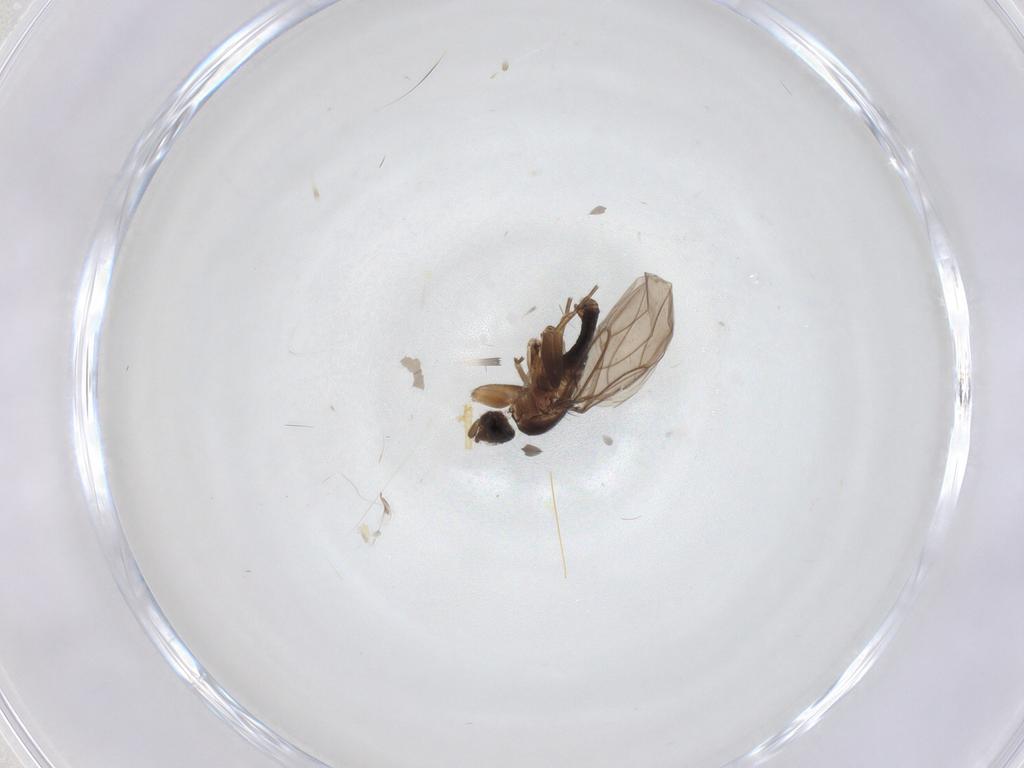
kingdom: Animalia
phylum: Arthropoda
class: Insecta
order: Diptera
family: Phoridae
